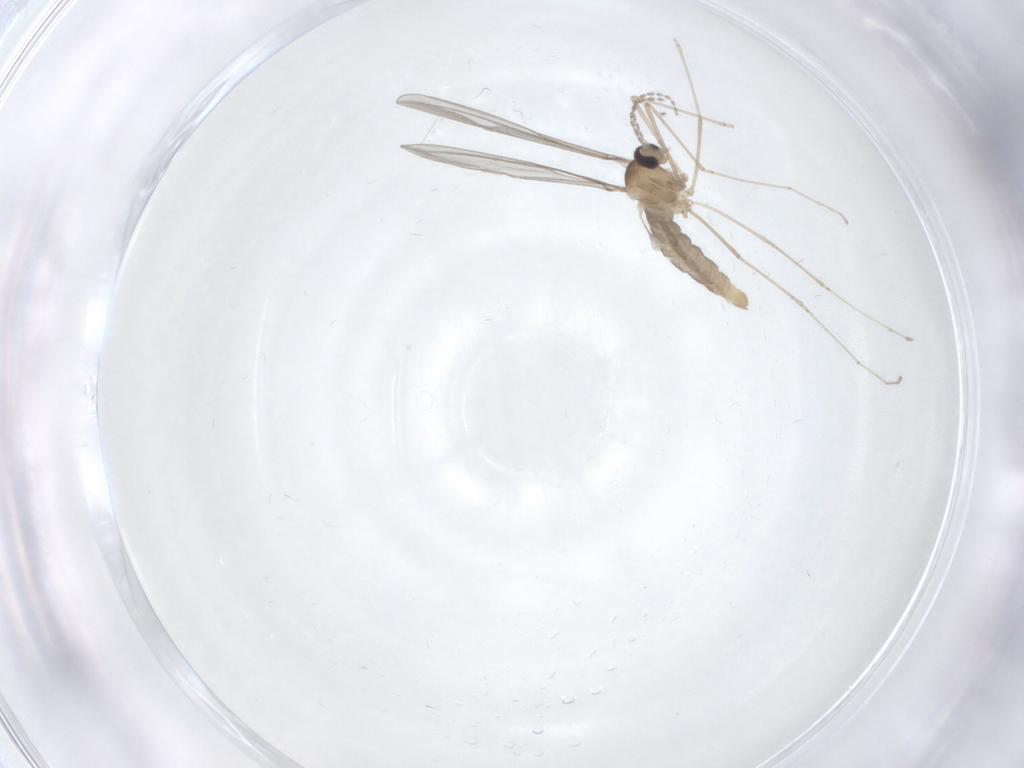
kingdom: Animalia
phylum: Arthropoda
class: Insecta
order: Diptera
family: Cecidomyiidae
